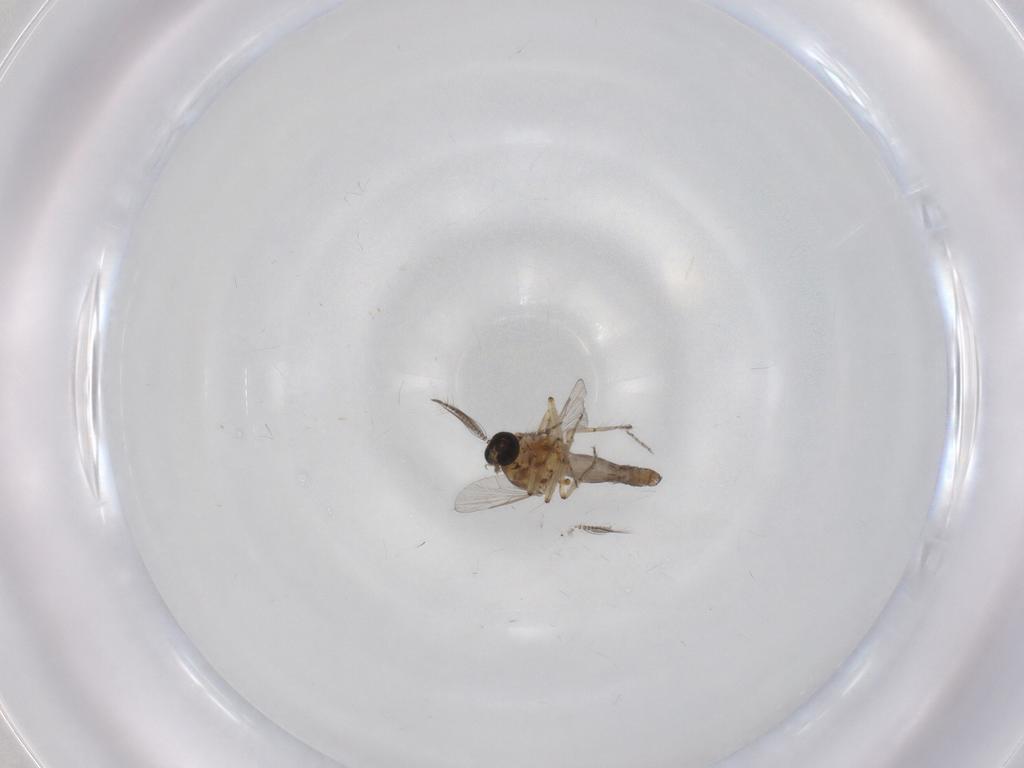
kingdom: Animalia
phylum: Arthropoda
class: Insecta
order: Diptera
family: Ceratopogonidae
